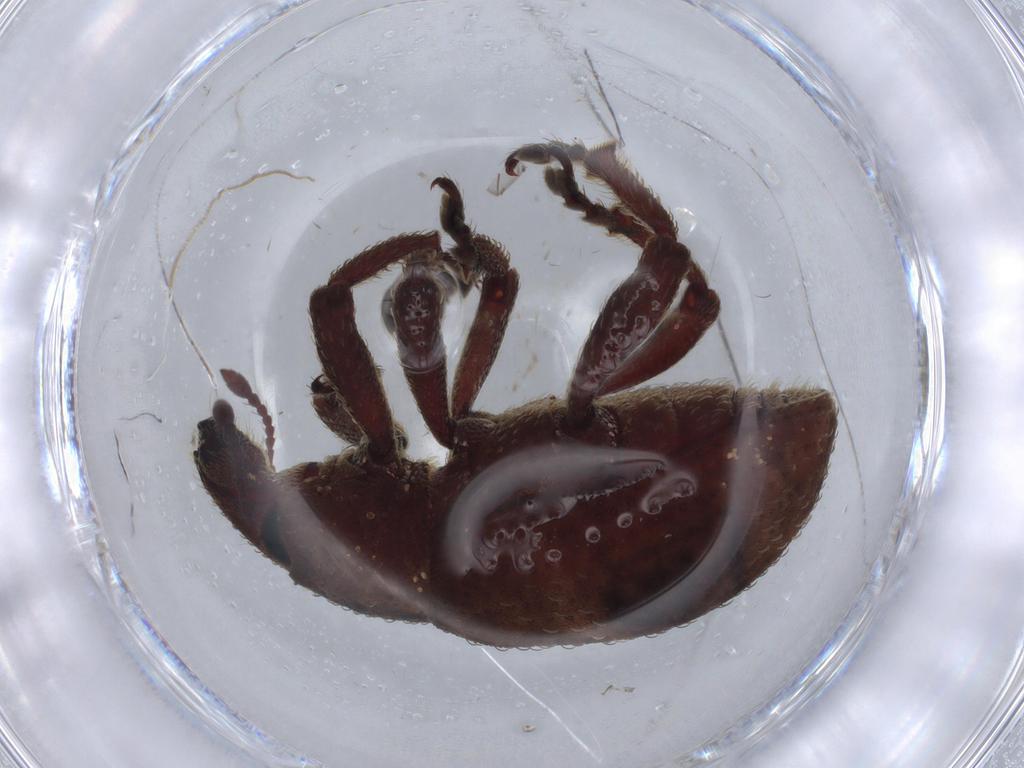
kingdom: Animalia
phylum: Arthropoda
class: Insecta
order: Coleoptera
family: Curculionidae
